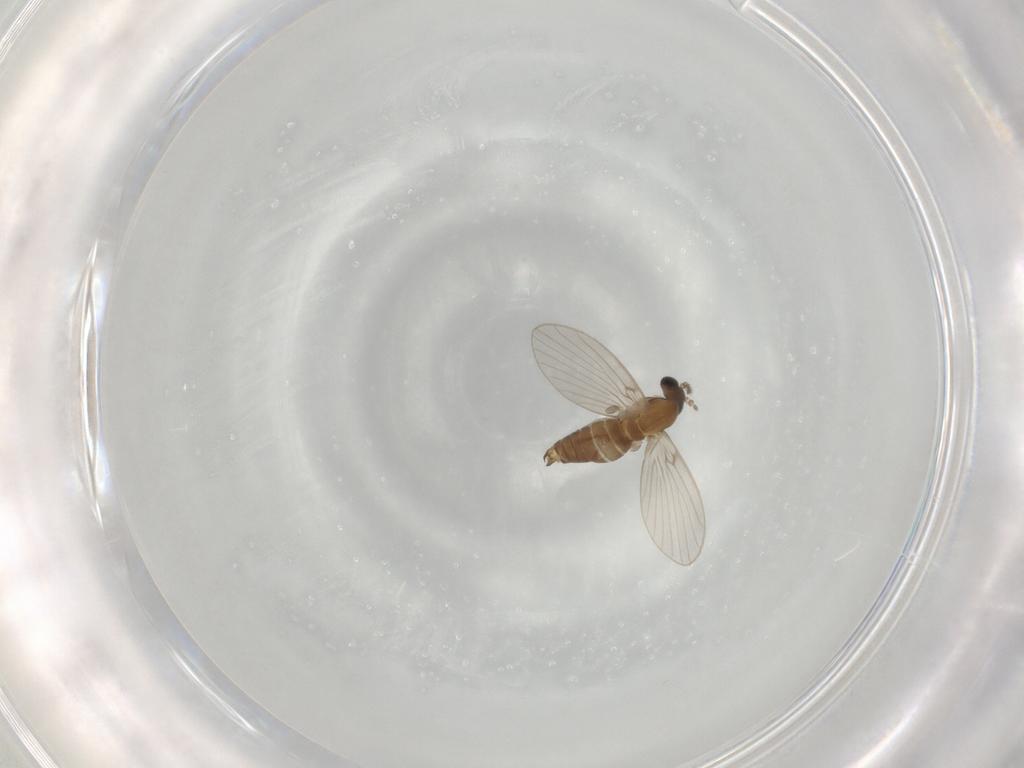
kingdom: Animalia
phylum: Arthropoda
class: Insecta
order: Diptera
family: Psychodidae
